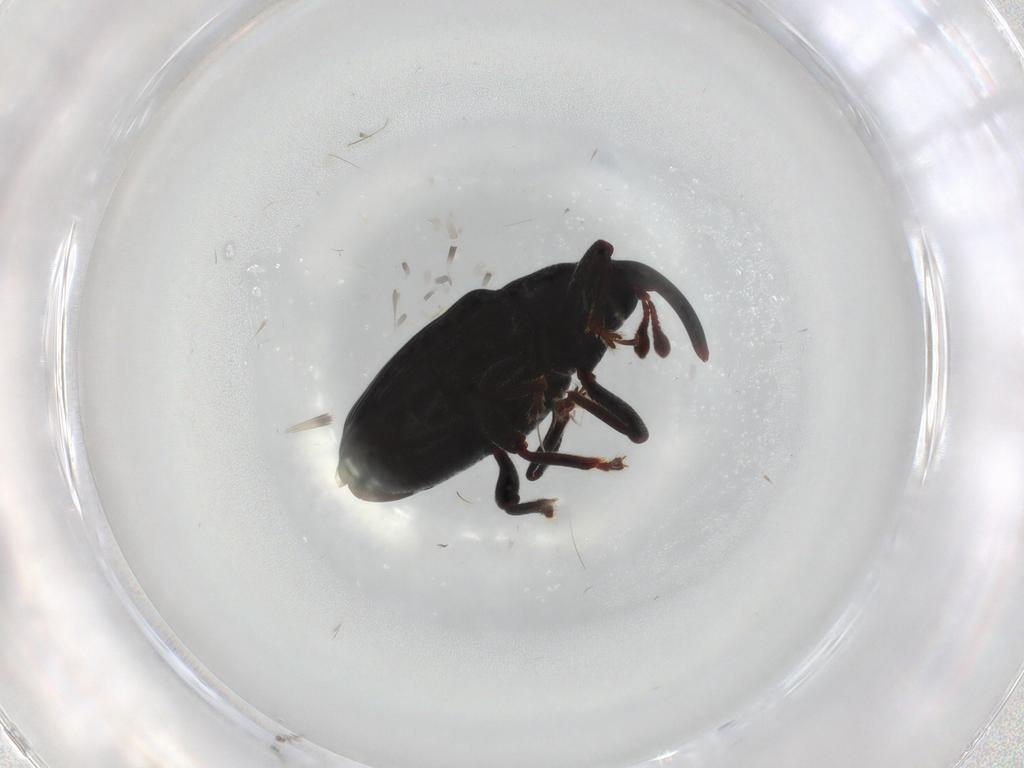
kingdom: Animalia
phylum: Arthropoda
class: Insecta
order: Coleoptera
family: Curculionidae
